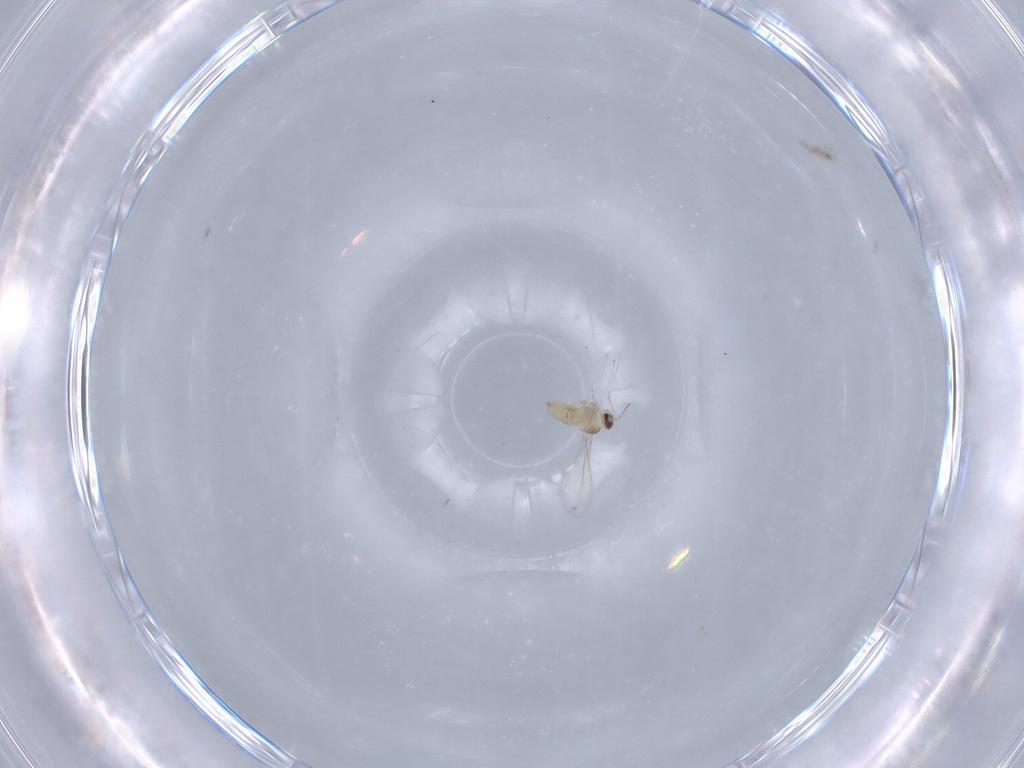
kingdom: Animalia
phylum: Arthropoda
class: Insecta
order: Diptera
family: Cecidomyiidae
